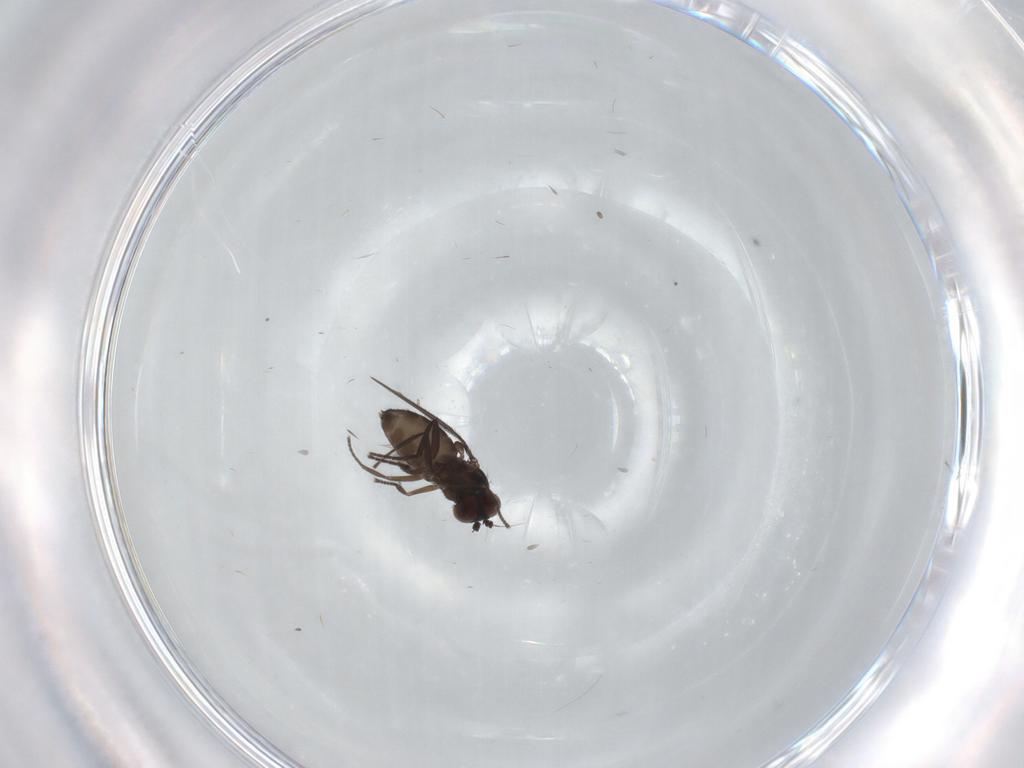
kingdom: Animalia
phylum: Arthropoda
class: Insecta
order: Diptera
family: Dolichopodidae
